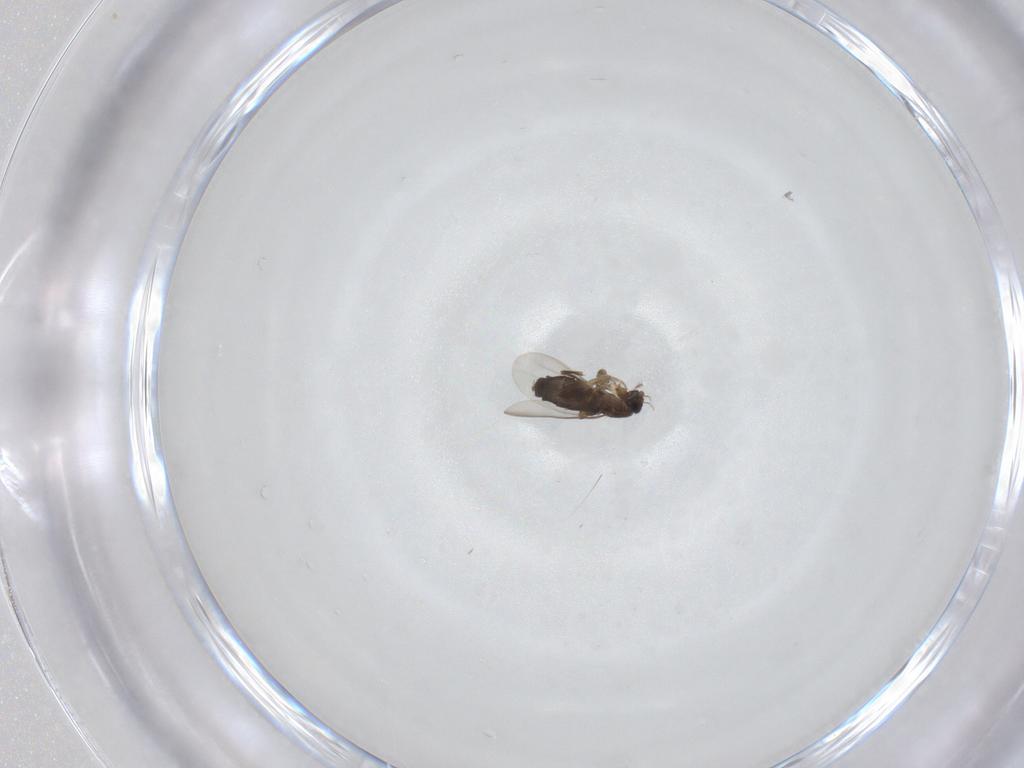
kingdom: Animalia
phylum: Arthropoda
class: Insecta
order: Diptera
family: Phoridae
